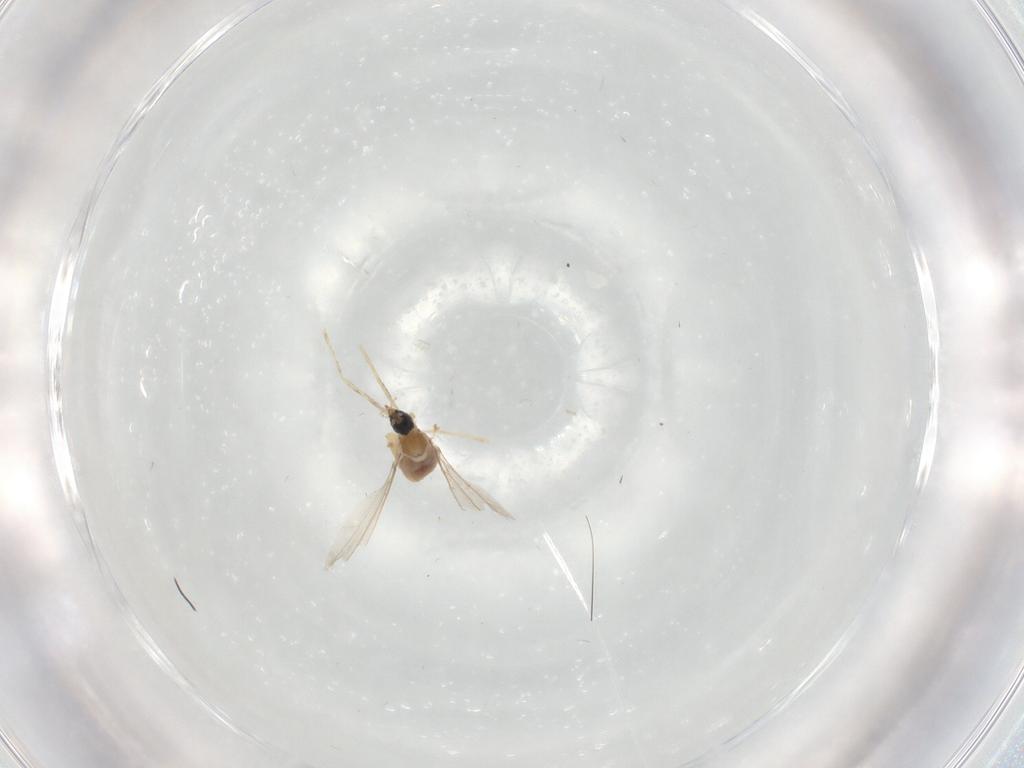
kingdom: Animalia
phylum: Arthropoda
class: Insecta
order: Diptera
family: Cecidomyiidae
